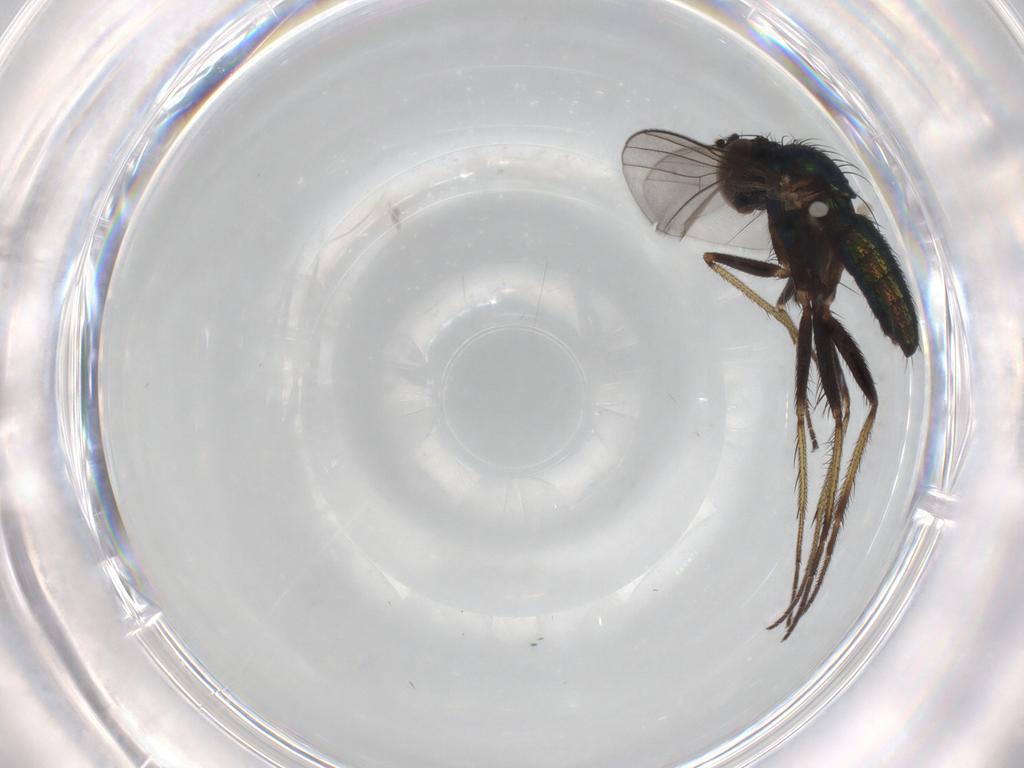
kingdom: Animalia
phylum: Arthropoda
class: Insecta
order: Diptera
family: Dolichopodidae
